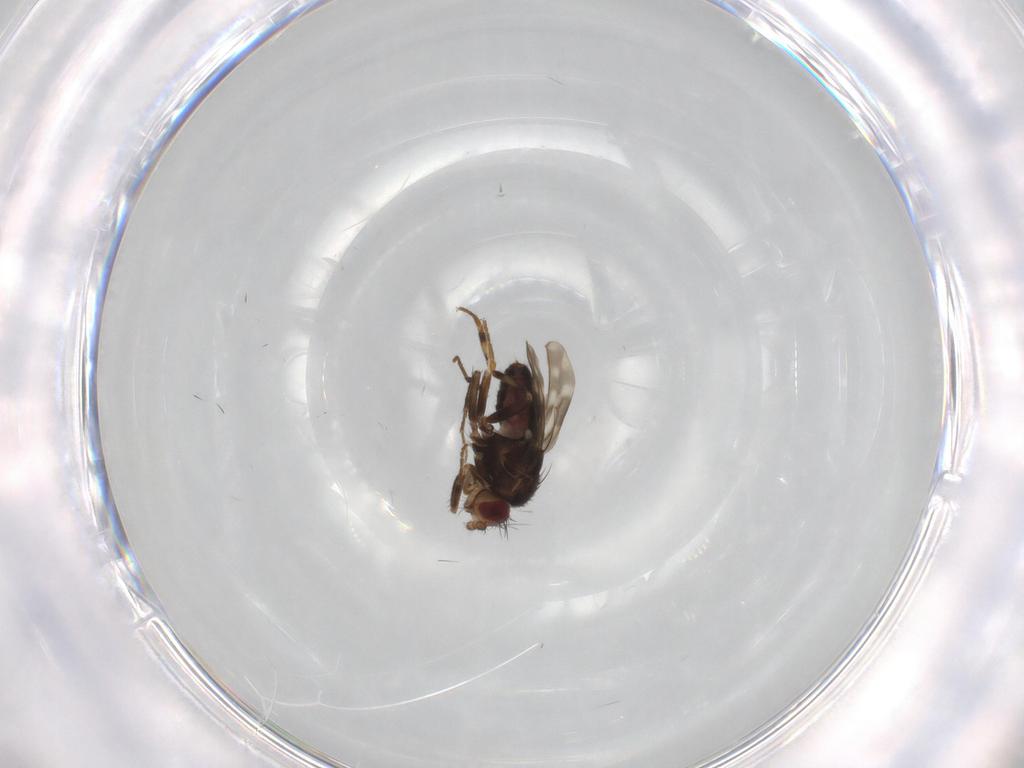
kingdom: Animalia
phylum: Arthropoda
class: Insecta
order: Diptera
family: Sphaeroceridae
